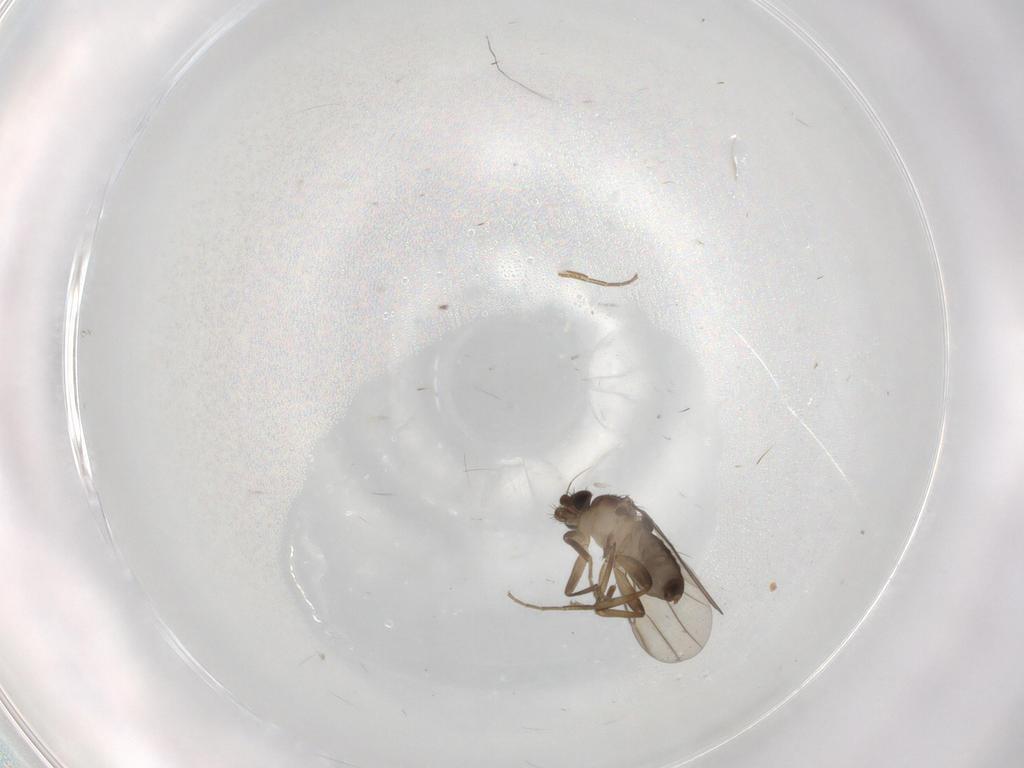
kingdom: Animalia
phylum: Arthropoda
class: Insecta
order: Diptera
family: Phoridae
